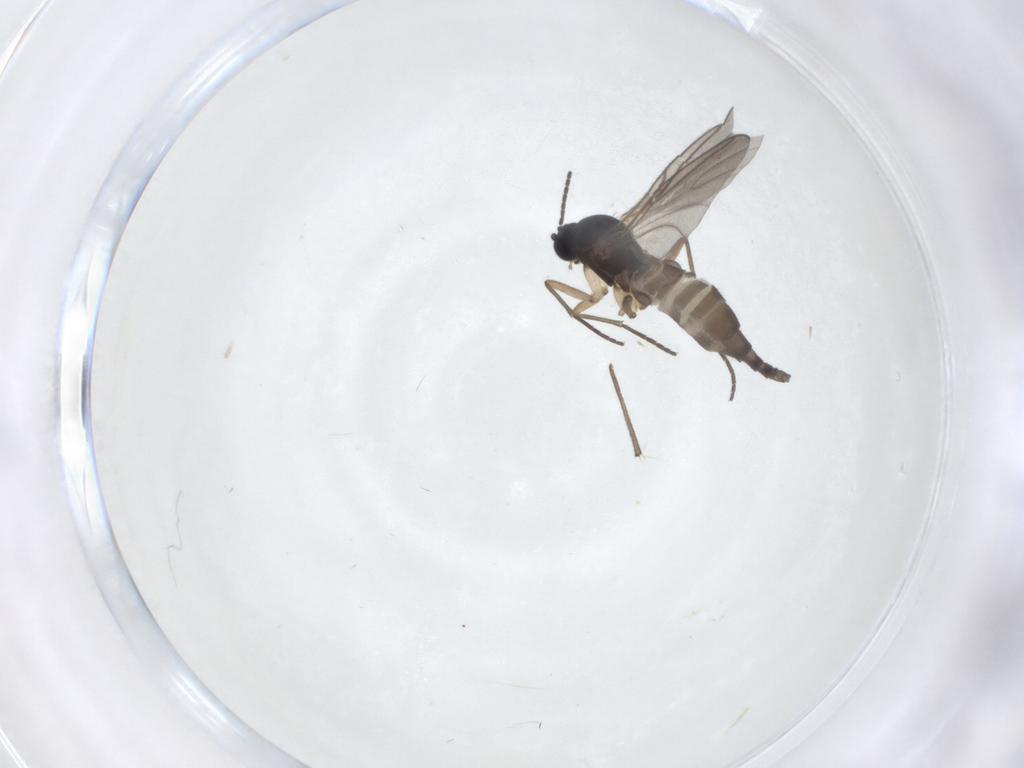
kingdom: Animalia
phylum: Arthropoda
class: Insecta
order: Diptera
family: Sciaridae
